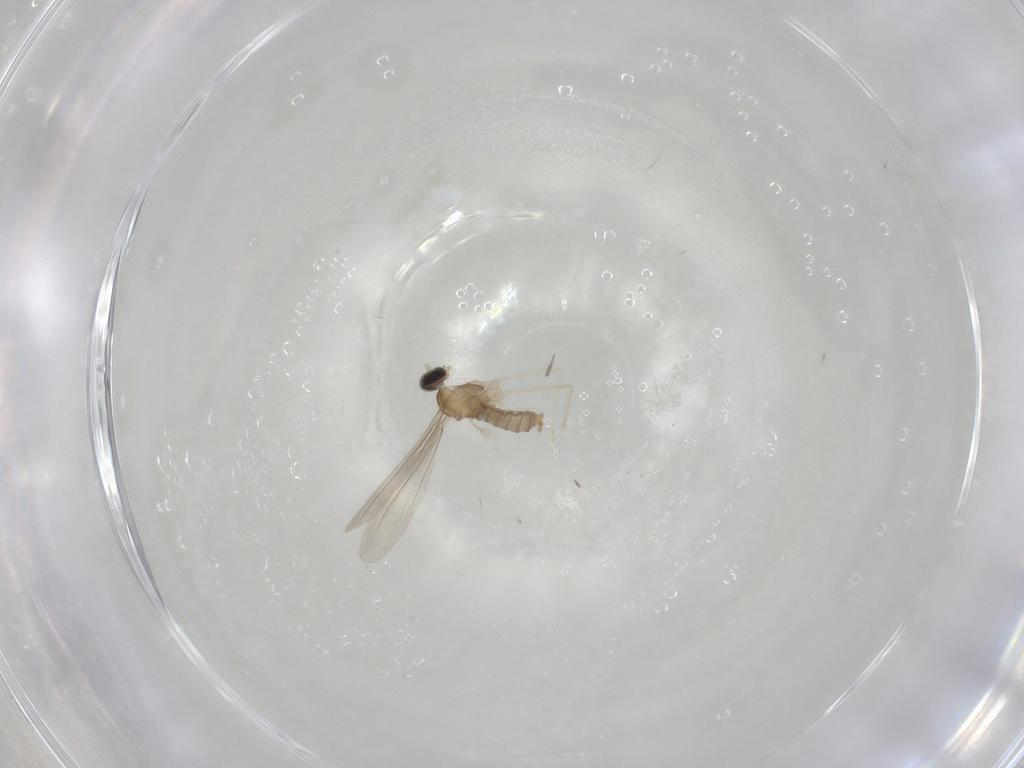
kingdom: Animalia
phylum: Arthropoda
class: Insecta
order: Diptera
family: Cecidomyiidae
